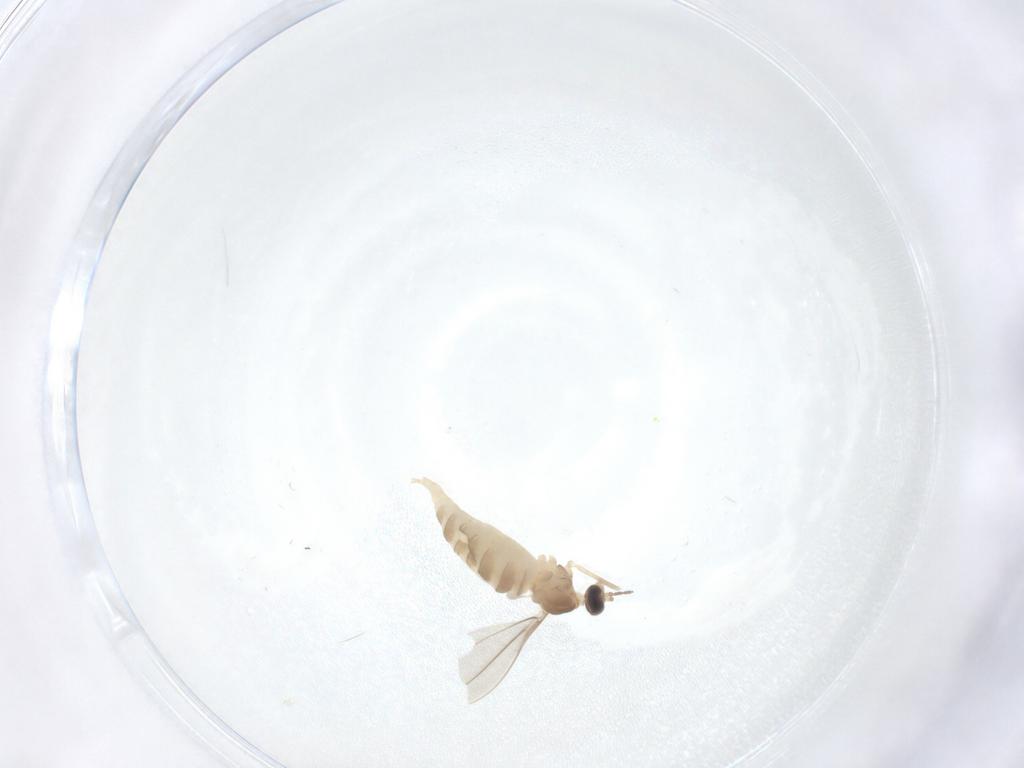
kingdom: Animalia
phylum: Arthropoda
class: Insecta
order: Diptera
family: Cecidomyiidae
